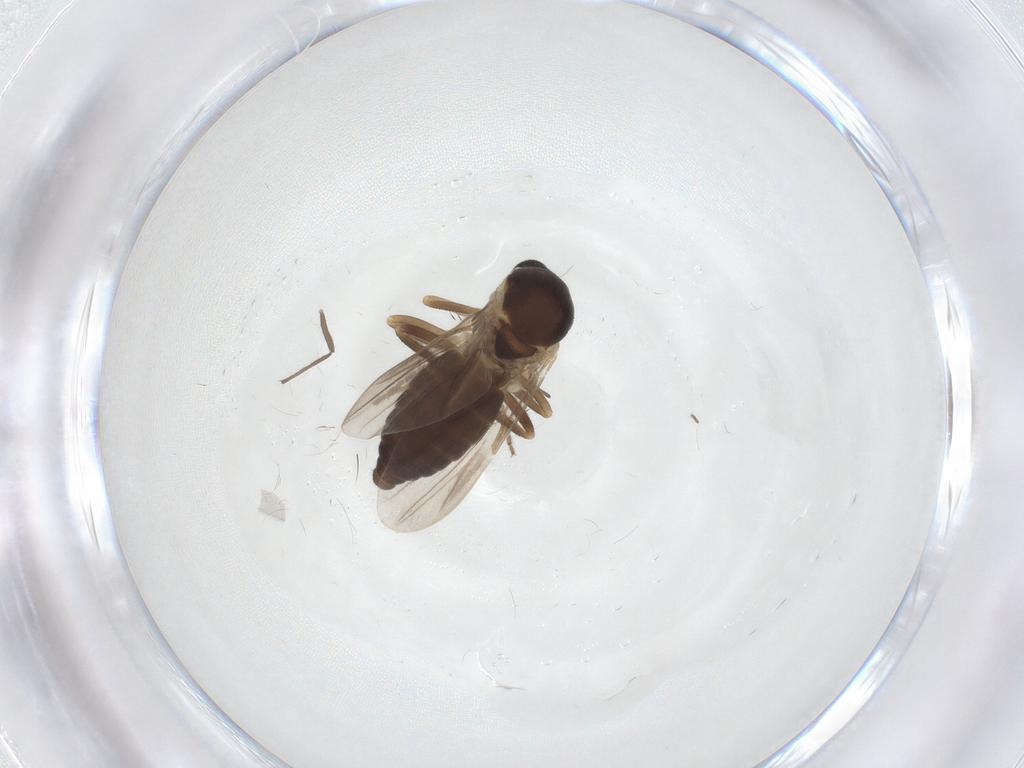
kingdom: Animalia
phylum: Arthropoda
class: Insecta
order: Diptera
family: Ceratopogonidae
